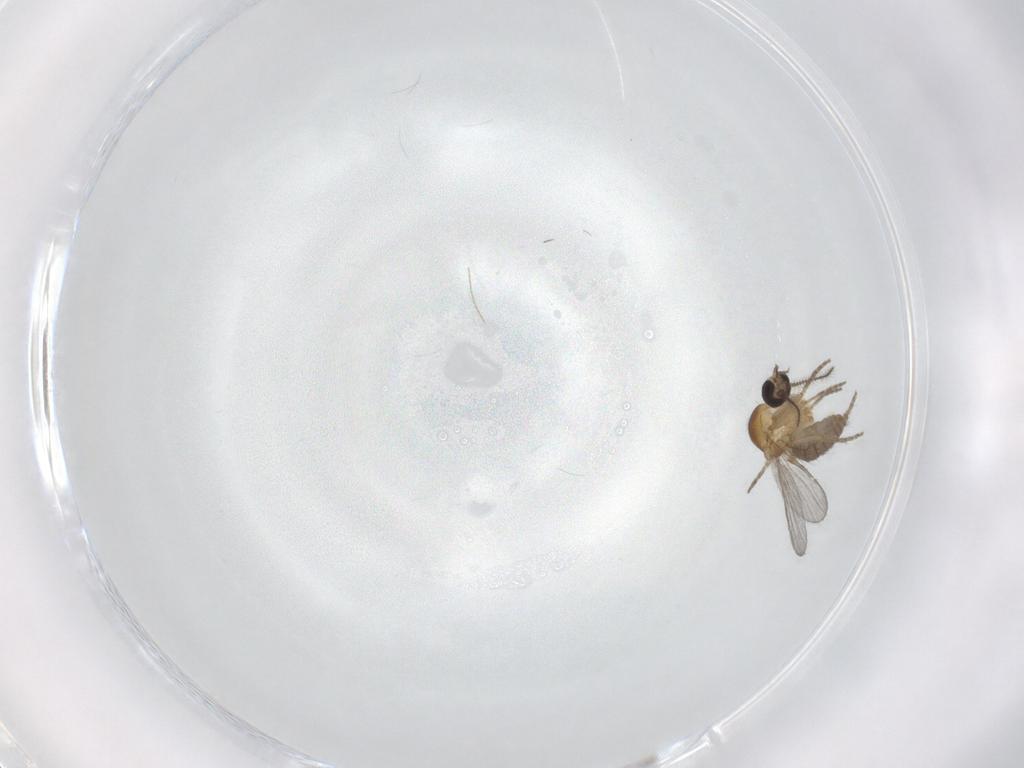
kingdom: Animalia
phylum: Arthropoda
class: Insecta
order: Diptera
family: Ceratopogonidae
